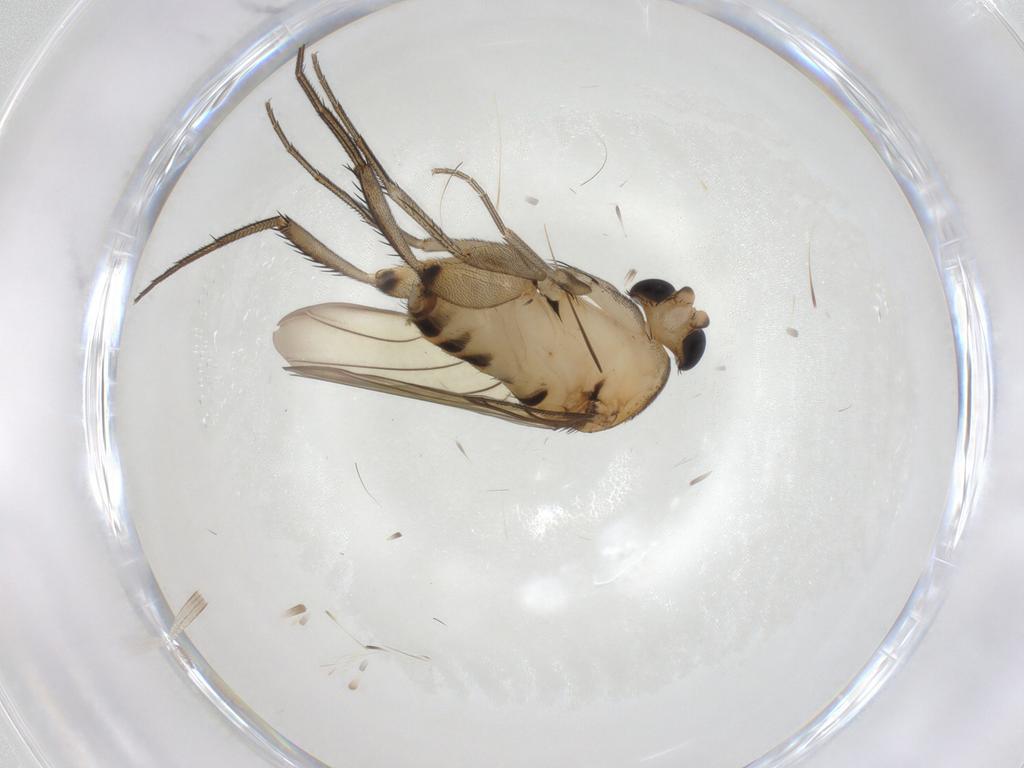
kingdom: Animalia
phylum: Arthropoda
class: Insecta
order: Diptera
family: Phoridae
